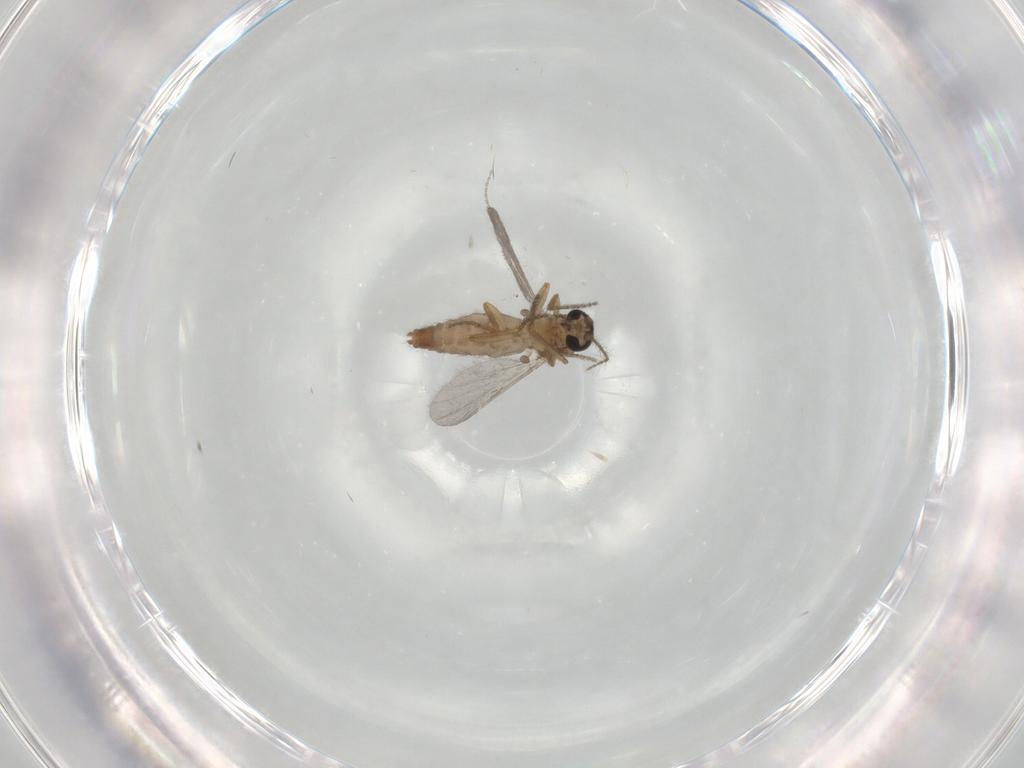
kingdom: Animalia
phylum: Arthropoda
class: Insecta
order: Diptera
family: Ceratopogonidae
